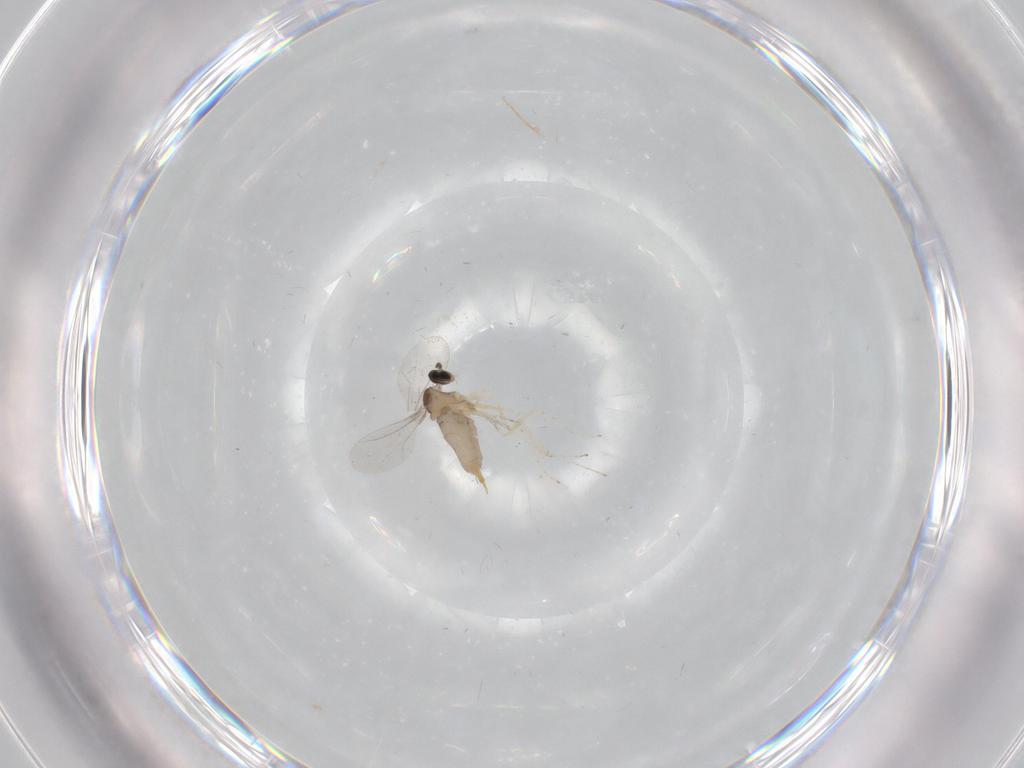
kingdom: Animalia
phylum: Arthropoda
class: Insecta
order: Diptera
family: Cecidomyiidae
